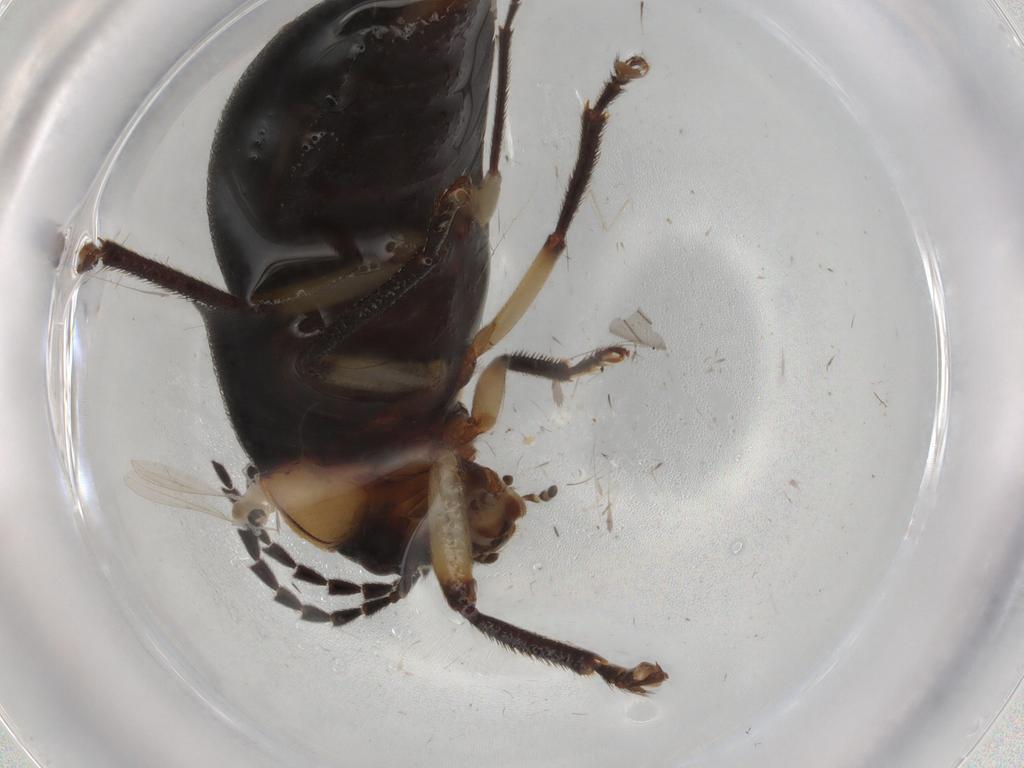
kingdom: Animalia
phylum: Arthropoda
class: Insecta
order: Coleoptera
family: Ptilodactylidae
